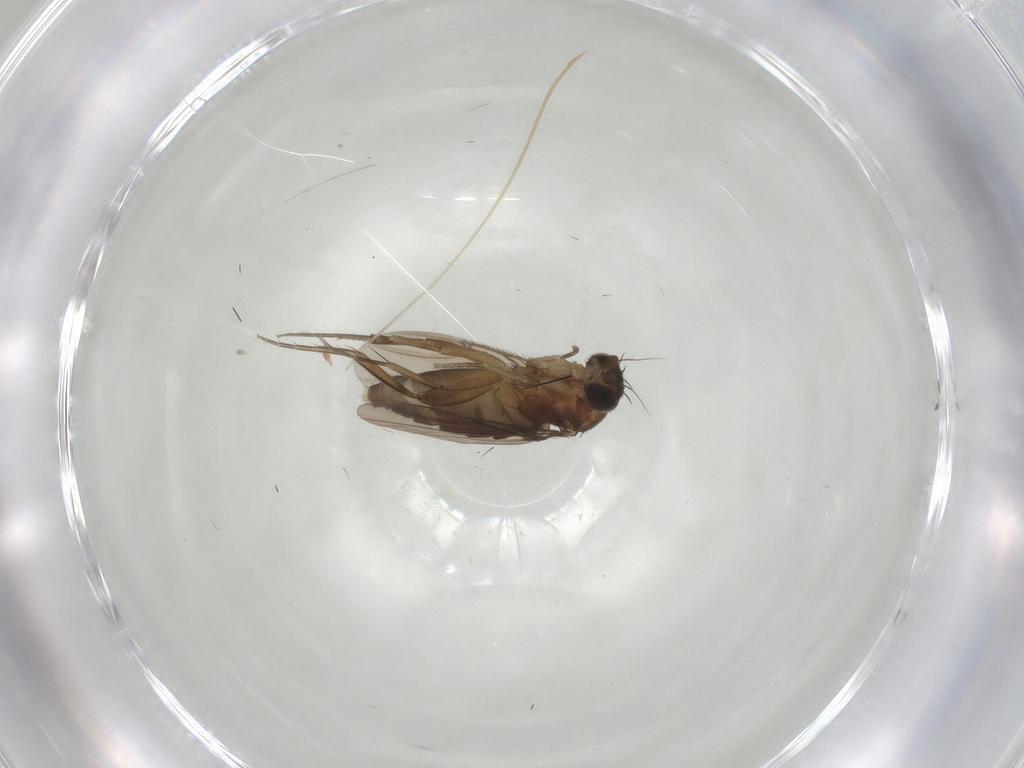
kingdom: Animalia
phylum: Arthropoda
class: Insecta
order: Diptera
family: Phoridae
